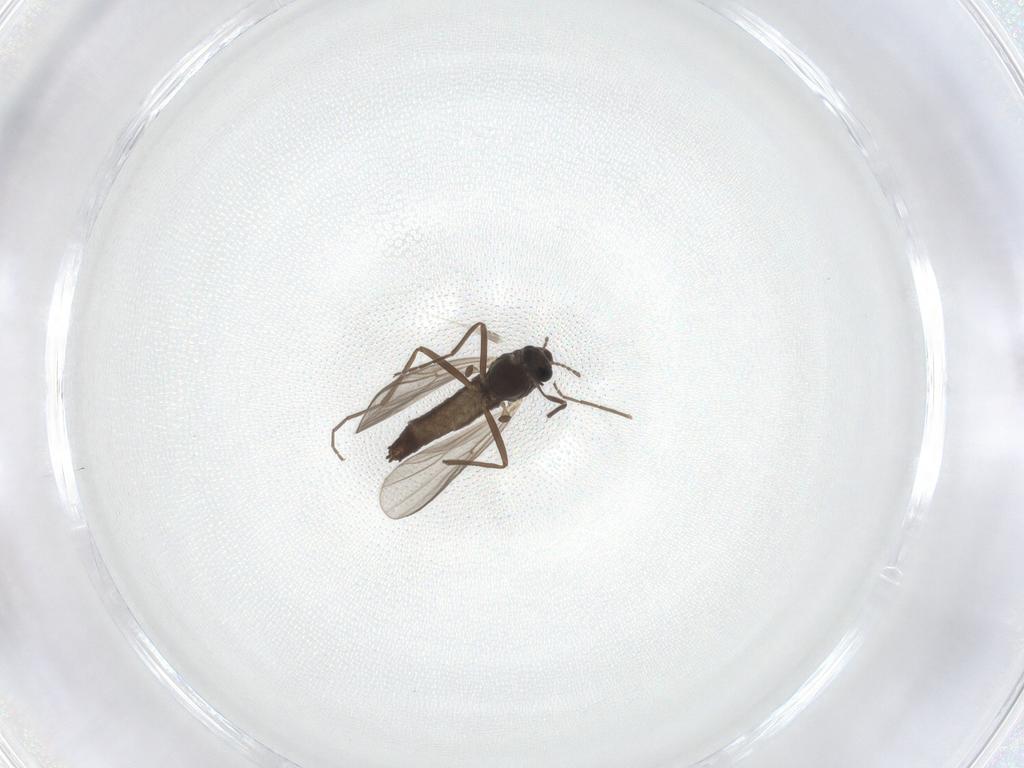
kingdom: Animalia
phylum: Arthropoda
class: Insecta
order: Diptera
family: Chironomidae
